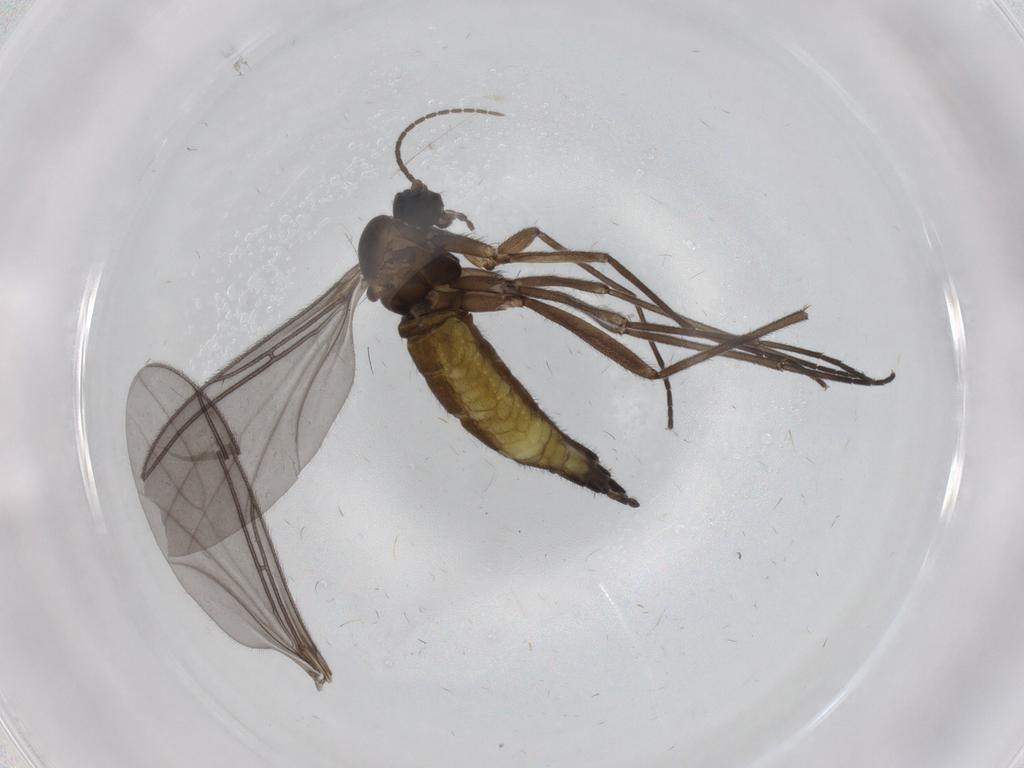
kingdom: Animalia
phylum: Arthropoda
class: Insecta
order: Diptera
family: Sciaridae
